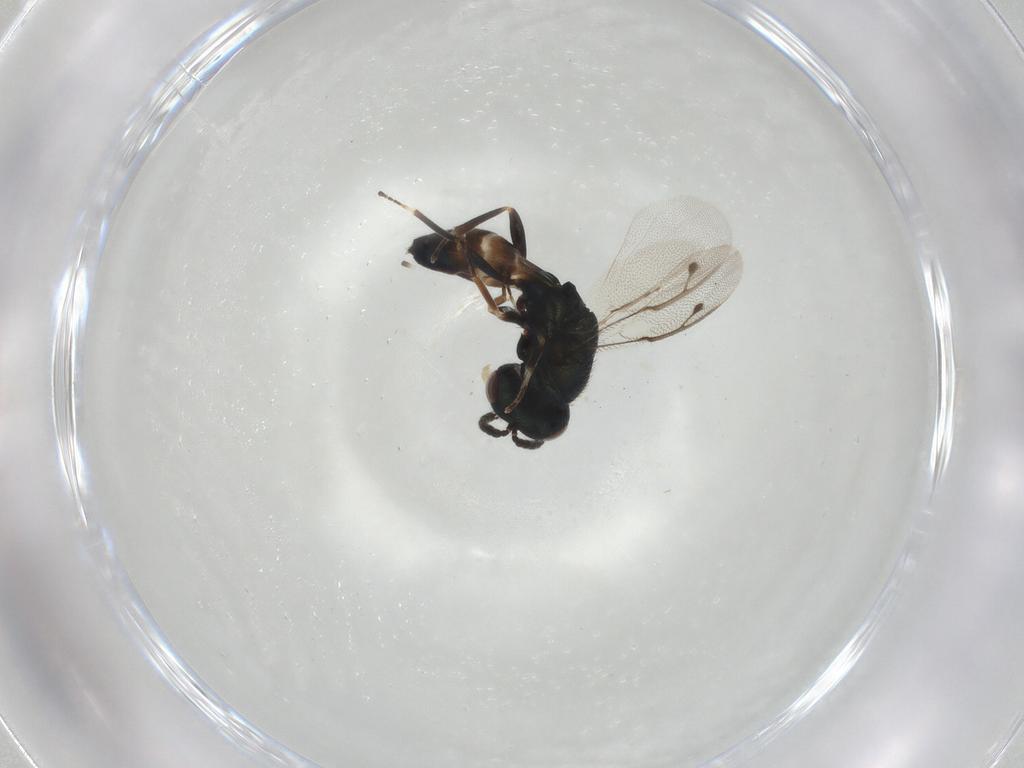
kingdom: Animalia
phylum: Arthropoda
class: Insecta
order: Hymenoptera
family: Pteromalidae
